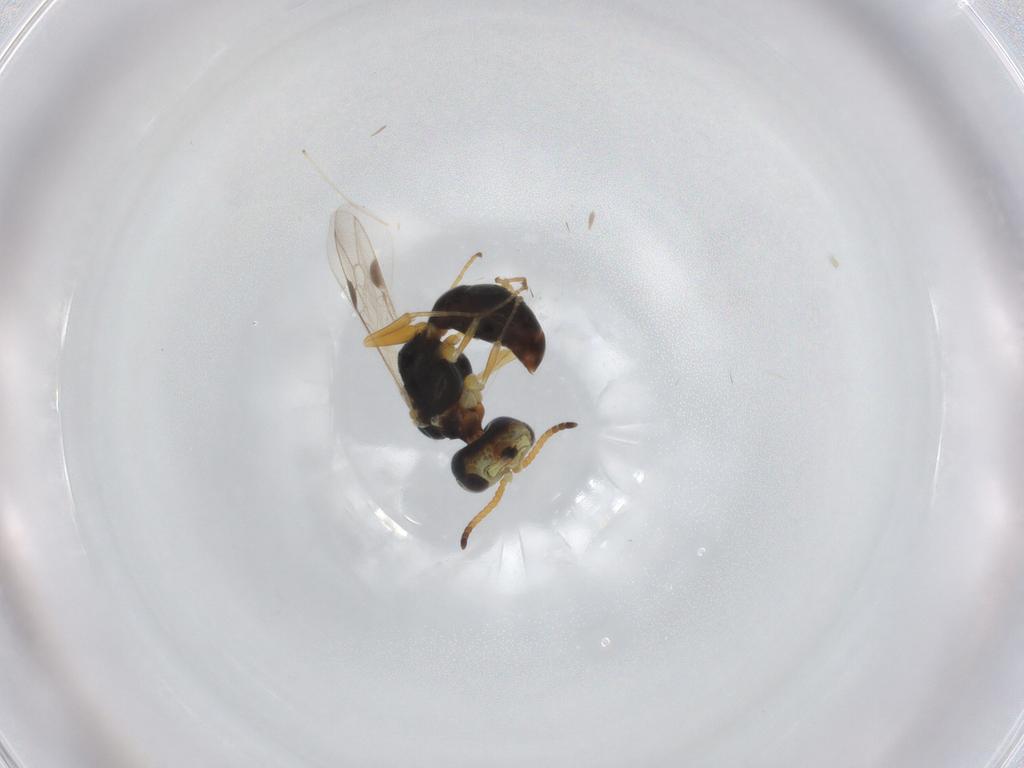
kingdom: Animalia
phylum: Arthropoda
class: Insecta
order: Hymenoptera
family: Pemphredonidae
